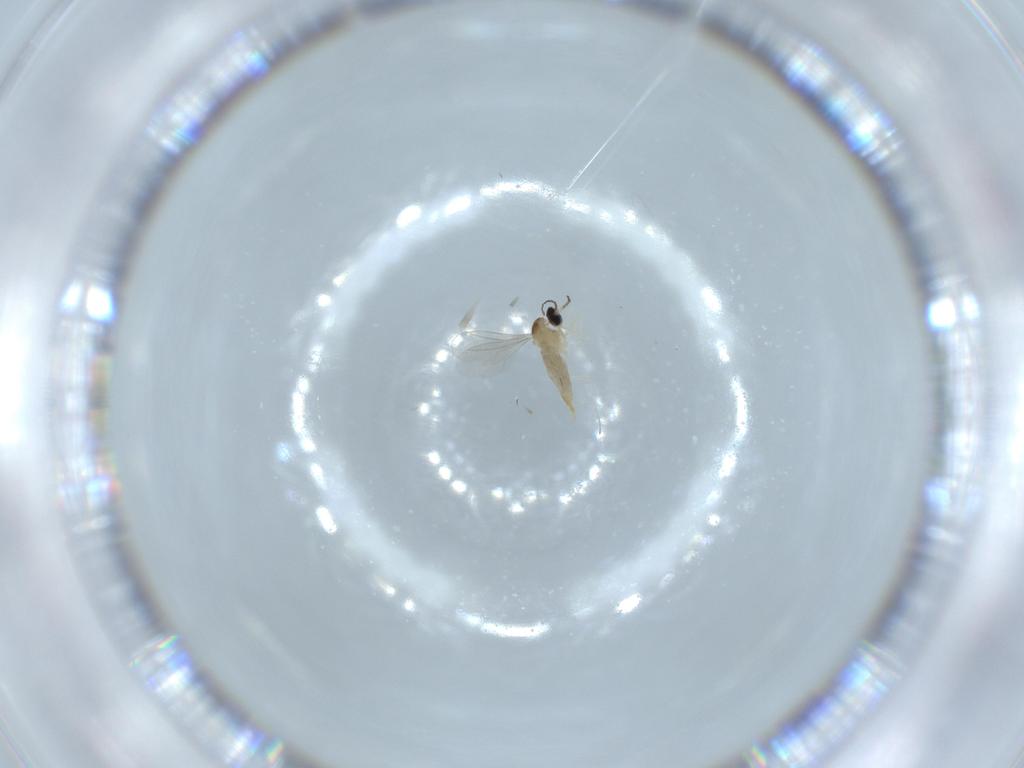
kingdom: Animalia
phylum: Arthropoda
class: Insecta
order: Diptera
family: Cecidomyiidae
